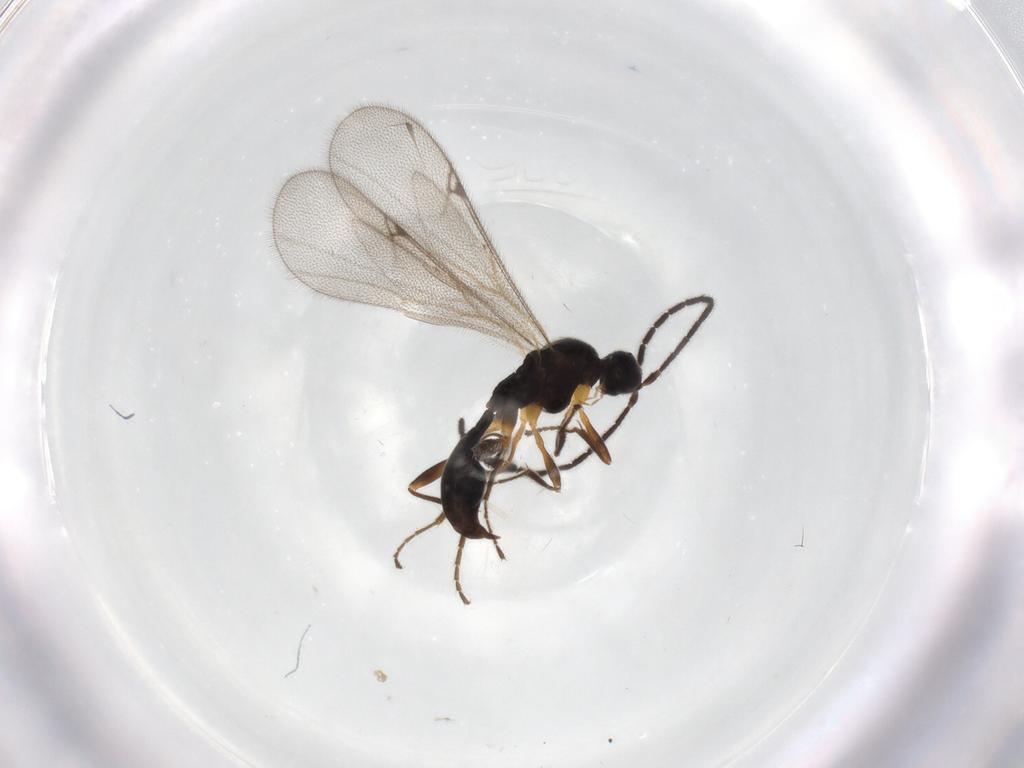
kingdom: Animalia
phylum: Arthropoda
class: Insecta
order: Hymenoptera
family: Proctotrupidae
